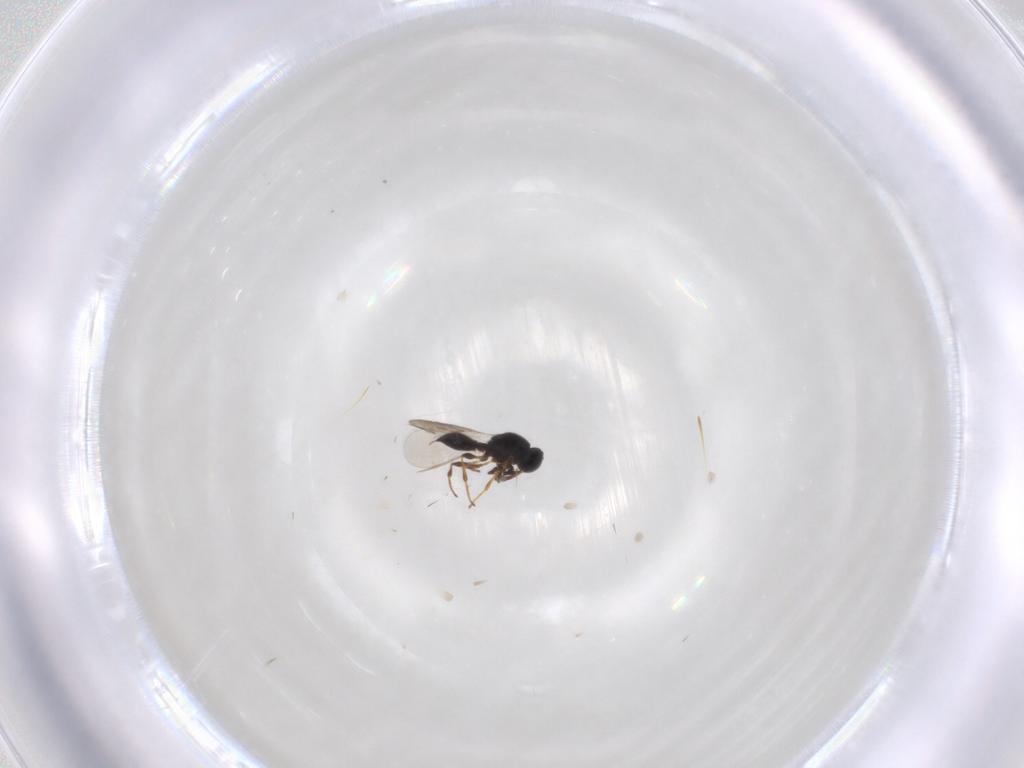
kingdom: Animalia
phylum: Arthropoda
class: Insecta
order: Hymenoptera
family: Platygastridae
